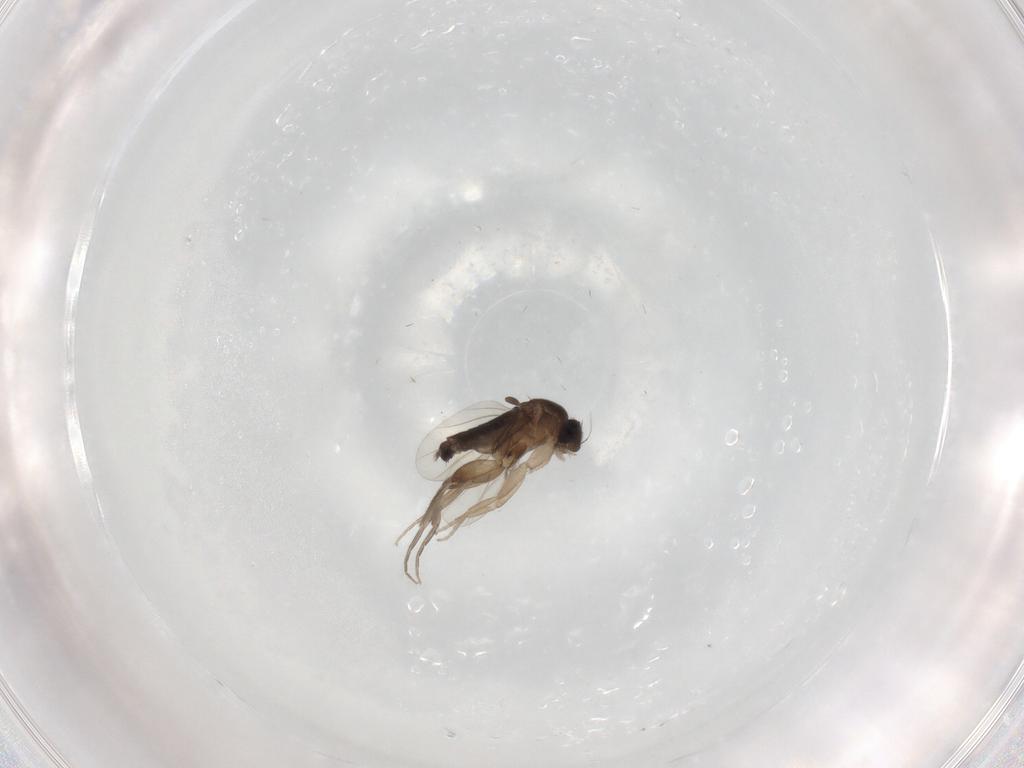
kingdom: Animalia
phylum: Arthropoda
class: Insecta
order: Diptera
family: Phoridae
